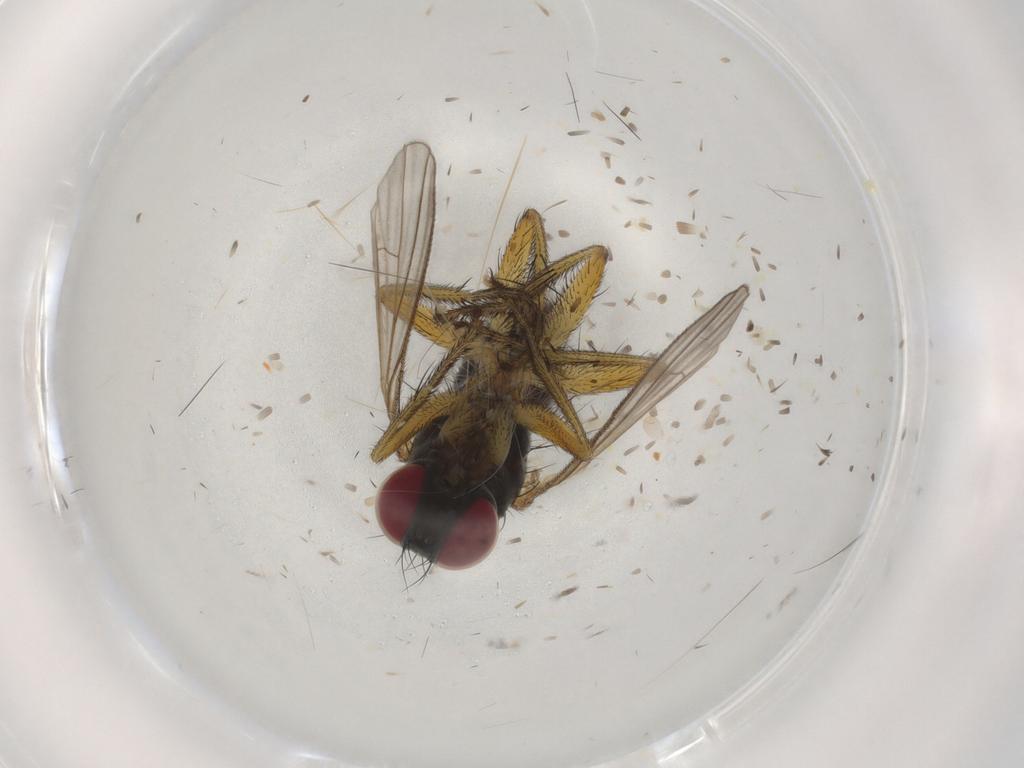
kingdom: Animalia
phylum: Arthropoda
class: Insecta
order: Diptera
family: Muscidae
